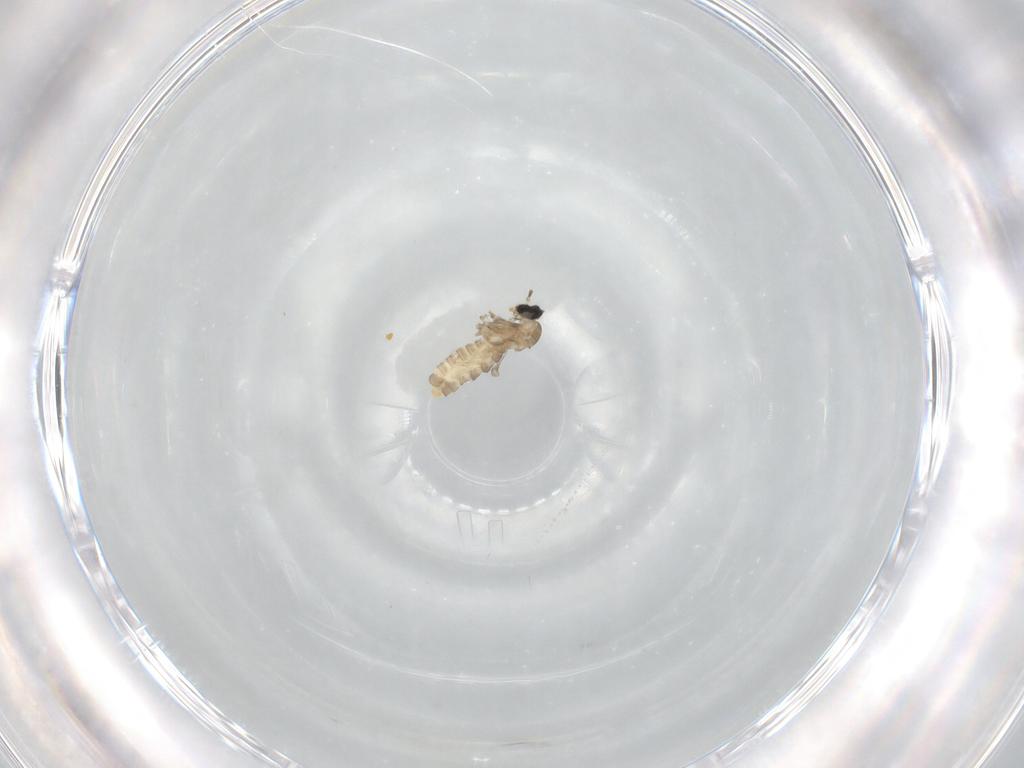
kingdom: Animalia
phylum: Arthropoda
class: Insecta
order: Diptera
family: Cecidomyiidae
